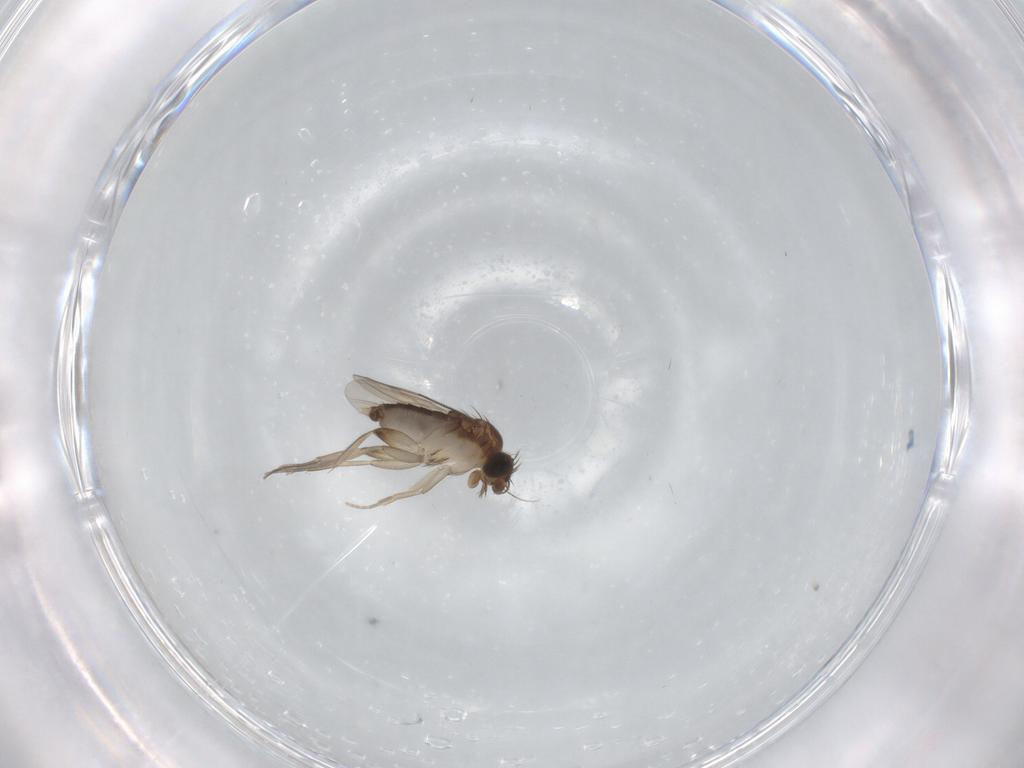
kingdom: Animalia
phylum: Arthropoda
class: Insecta
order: Diptera
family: Phoridae
